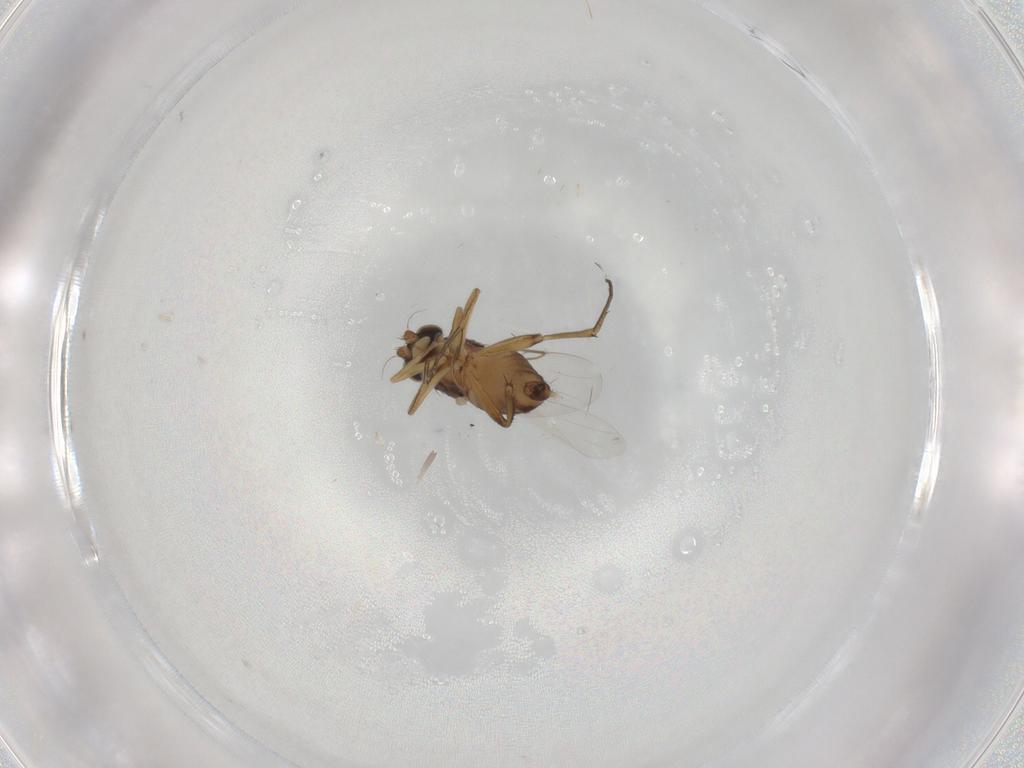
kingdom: Animalia
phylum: Arthropoda
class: Insecta
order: Diptera
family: Phoridae
